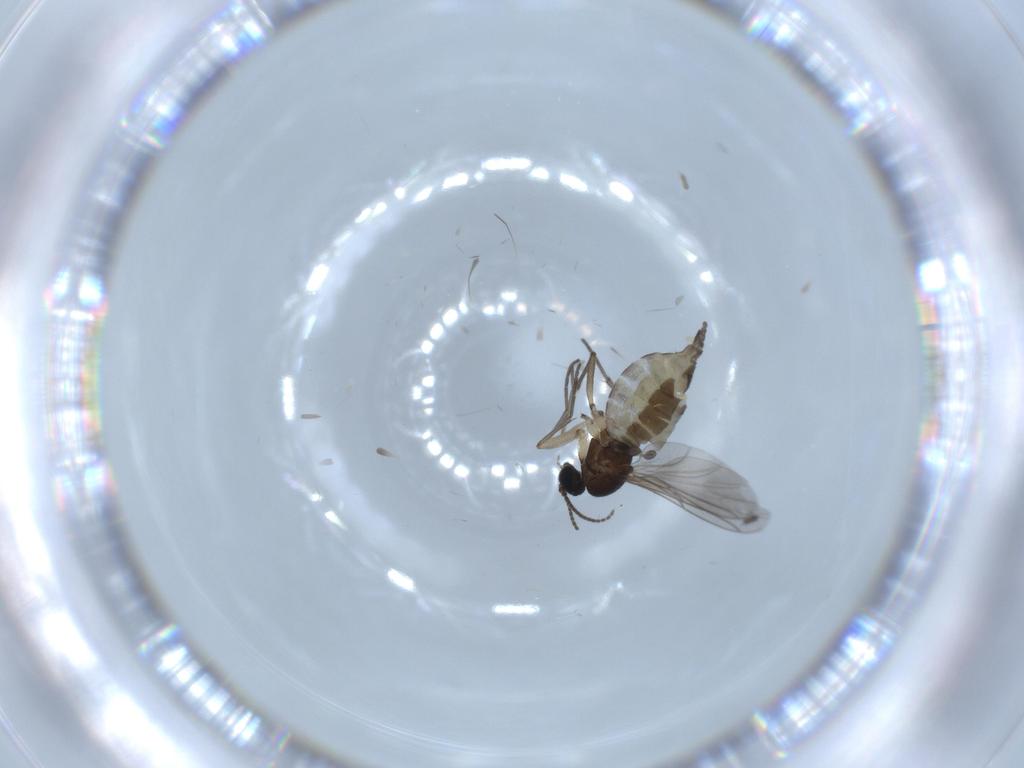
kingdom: Animalia
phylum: Arthropoda
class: Insecta
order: Diptera
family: Sciaridae
